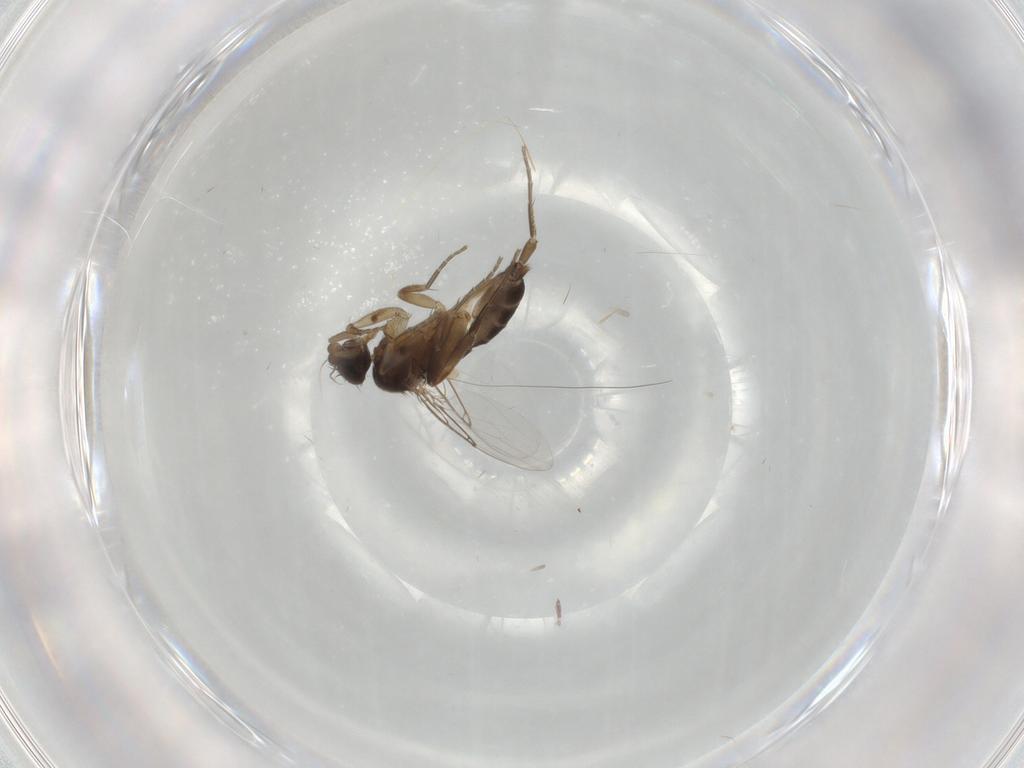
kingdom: Animalia
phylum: Arthropoda
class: Insecta
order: Diptera
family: Phoridae
